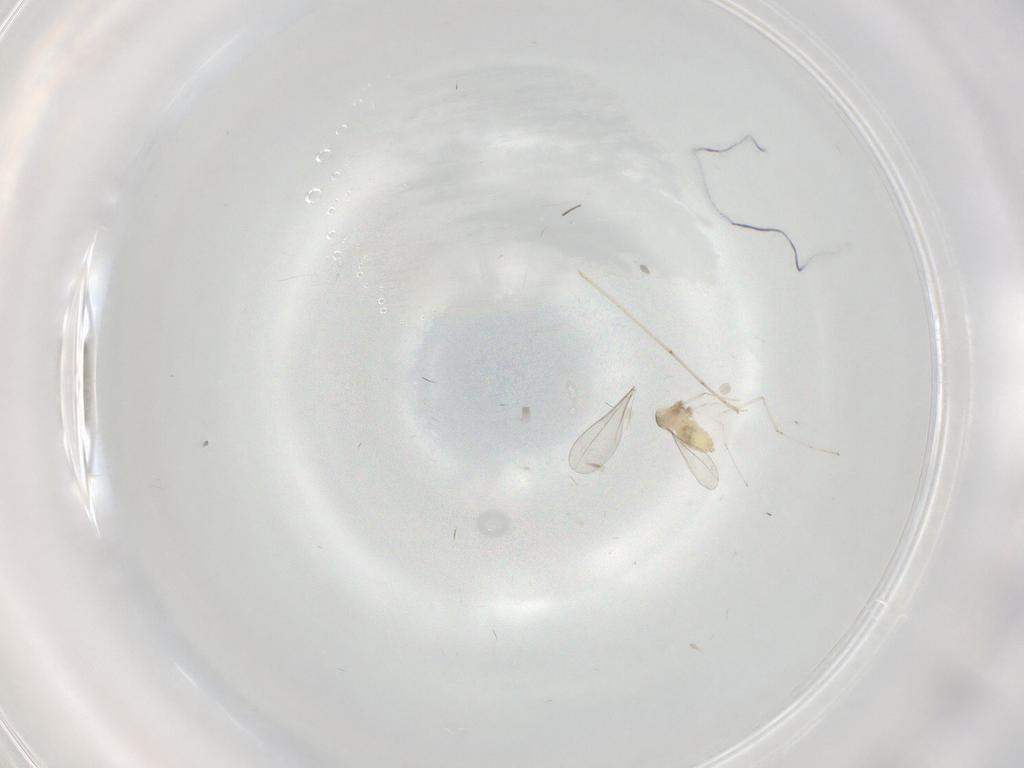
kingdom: Animalia
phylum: Arthropoda
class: Insecta
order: Diptera
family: Cecidomyiidae
